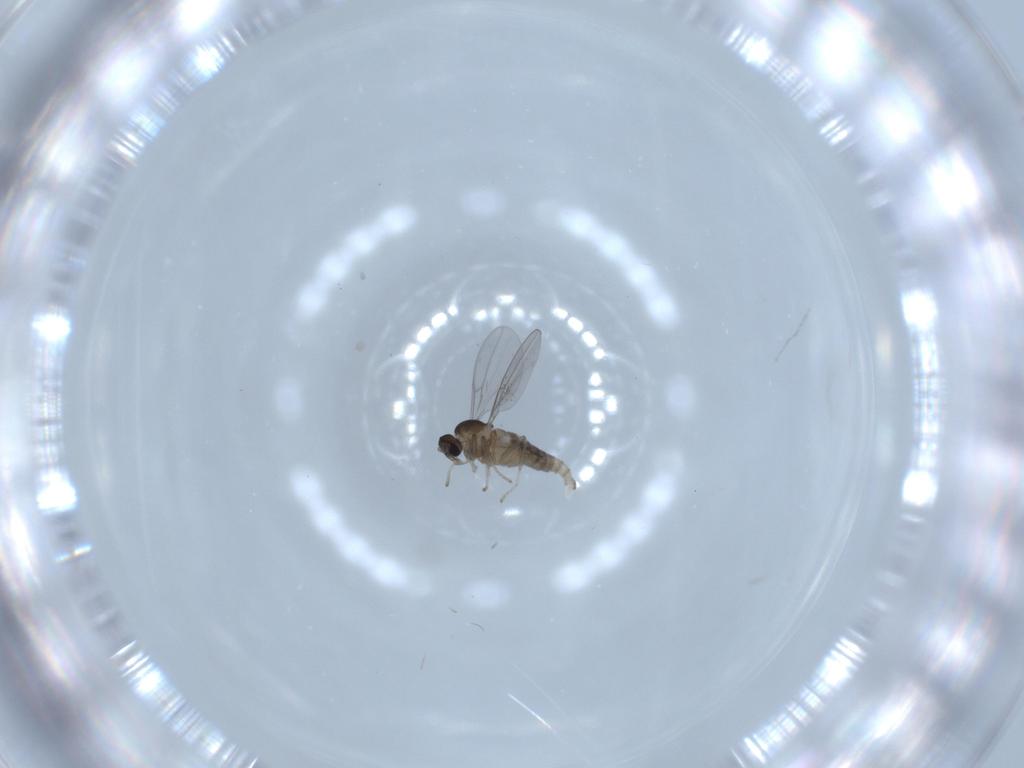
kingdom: Animalia
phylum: Arthropoda
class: Insecta
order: Diptera
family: Cecidomyiidae
